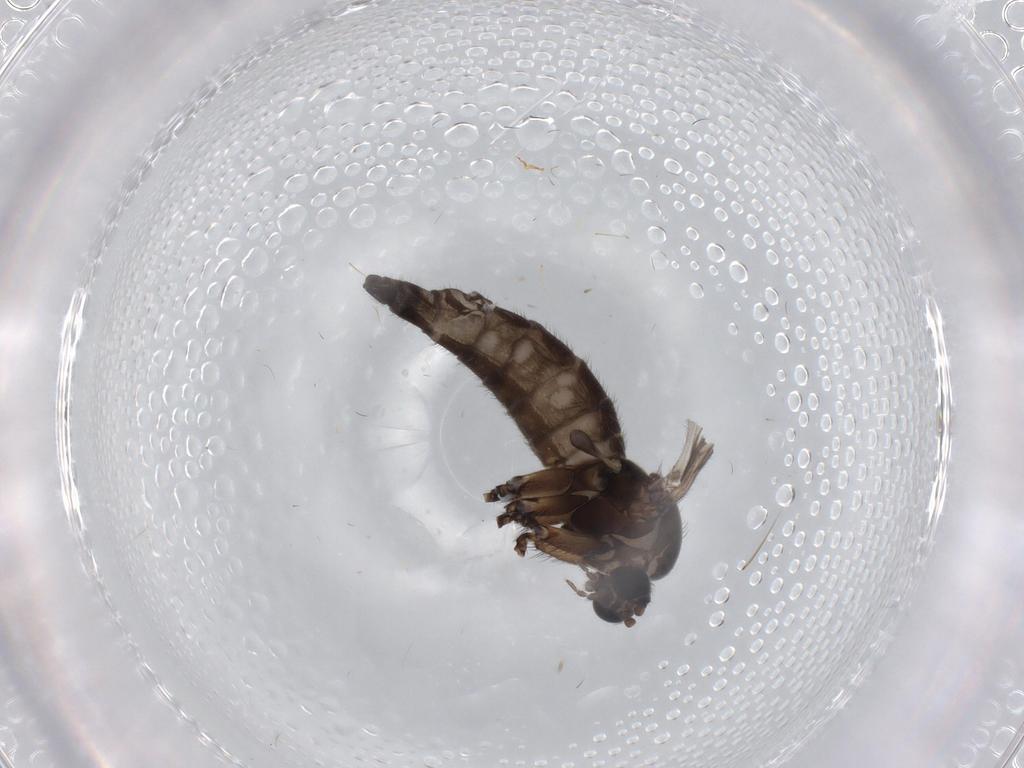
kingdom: Animalia
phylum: Arthropoda
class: Insecta
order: Diptera
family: Sciaridae
